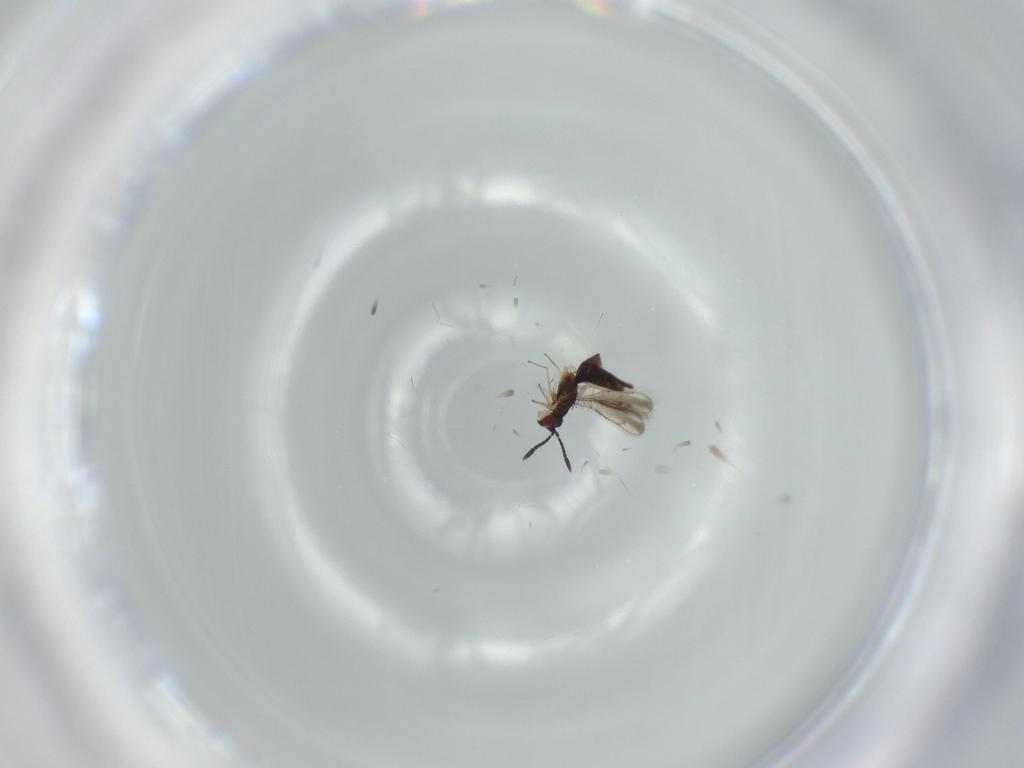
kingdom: Animalia
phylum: Arthropoda
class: Insecta
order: Hymenoptera
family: Pteromalidae
